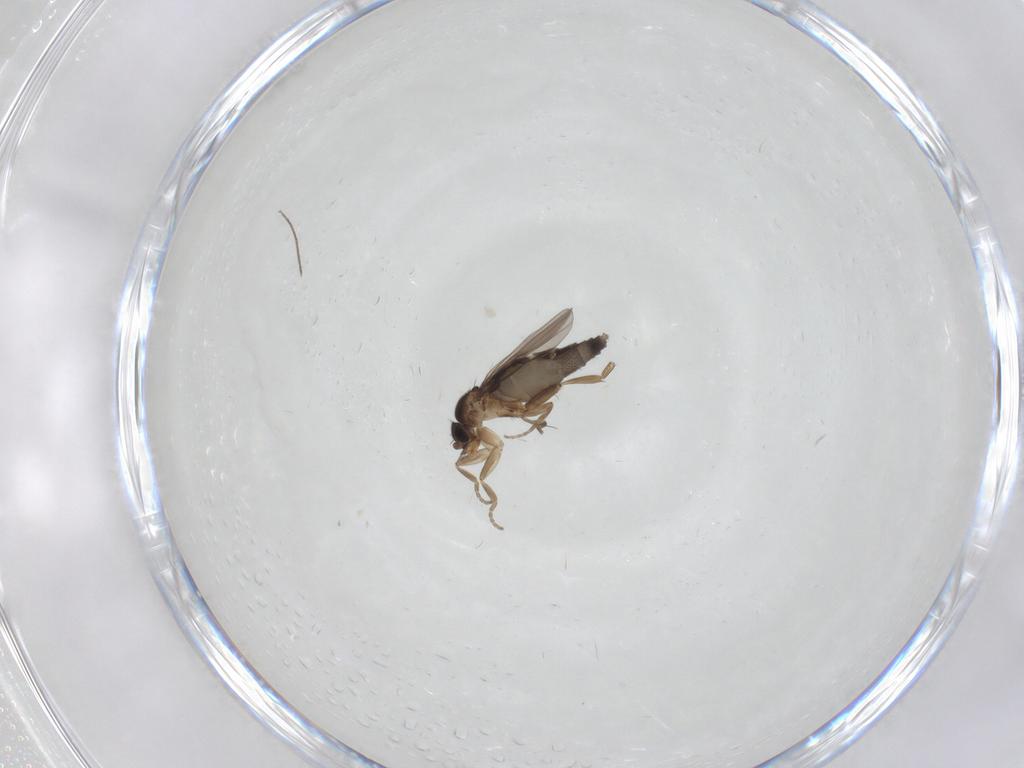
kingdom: Animalia
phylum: Arthropoda
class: Insecta
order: Diptera
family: Chironomidae
